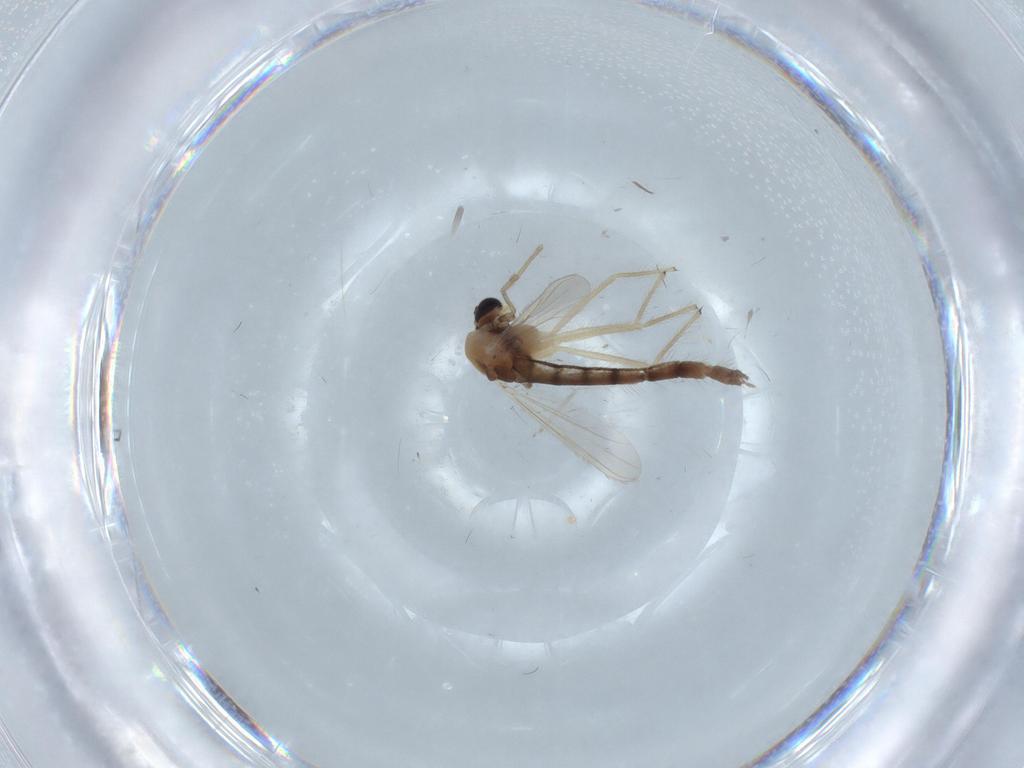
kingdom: Animalia
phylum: Arthropoda
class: Insecta
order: Diptera
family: Chironomidae
